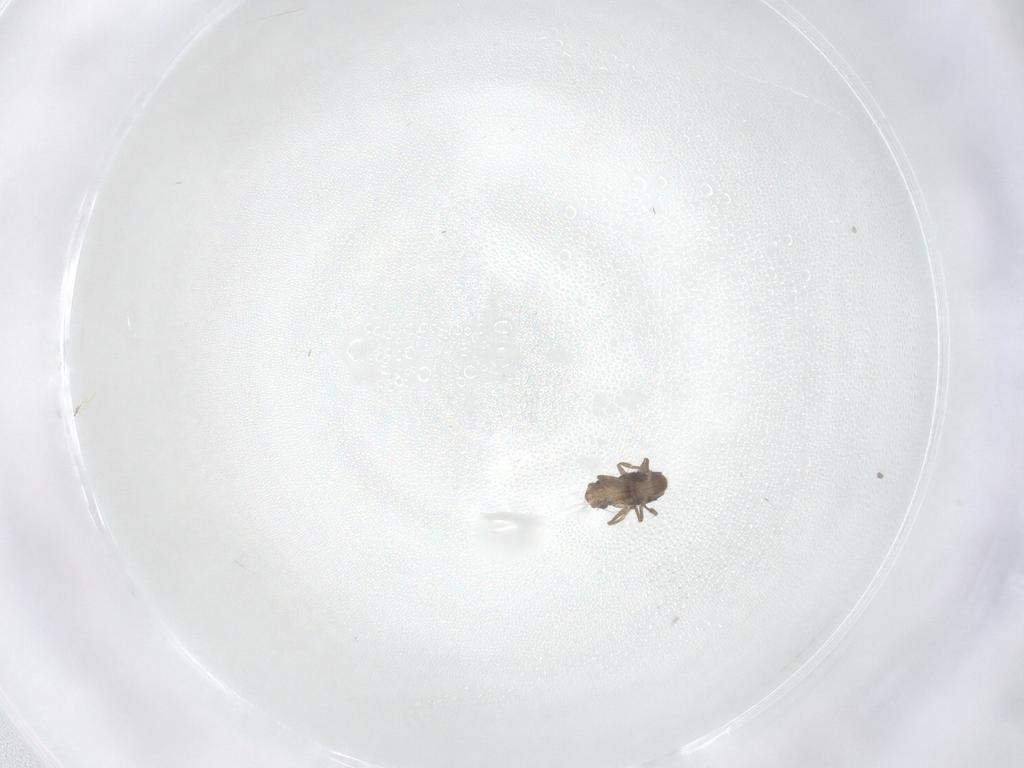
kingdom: Animalia
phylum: Arthropoda
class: Insecta
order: Diptera
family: Phoridae
